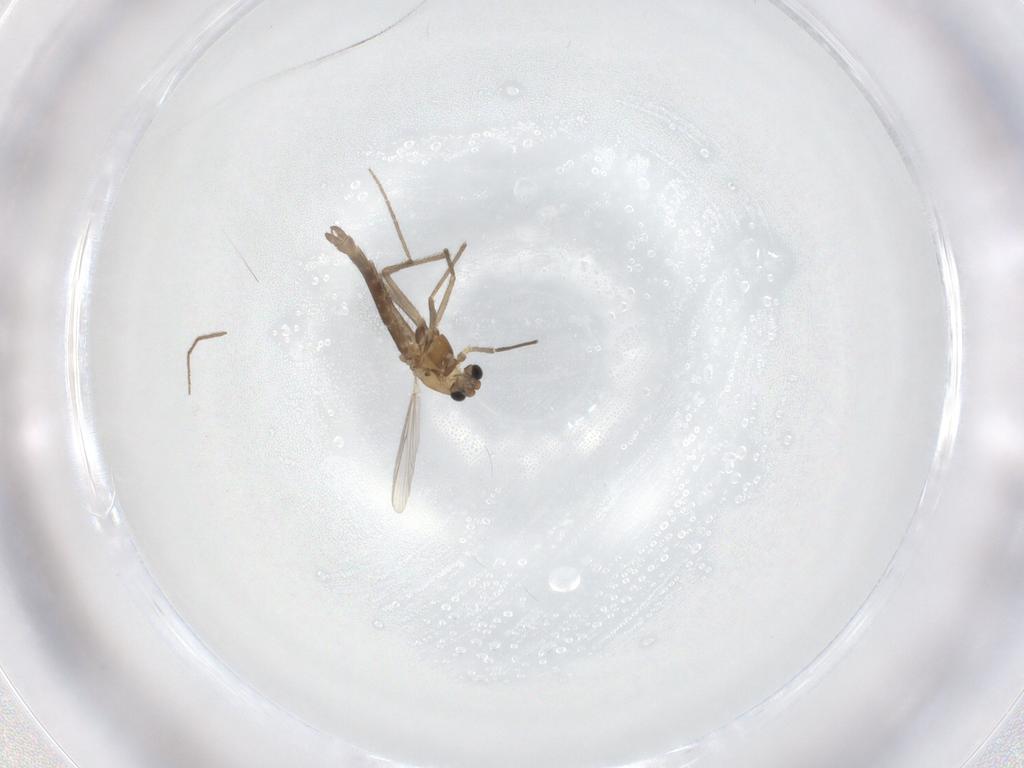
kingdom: Animalia
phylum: Arthropoda
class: Insecta
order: Diptera
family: Chironomidae
